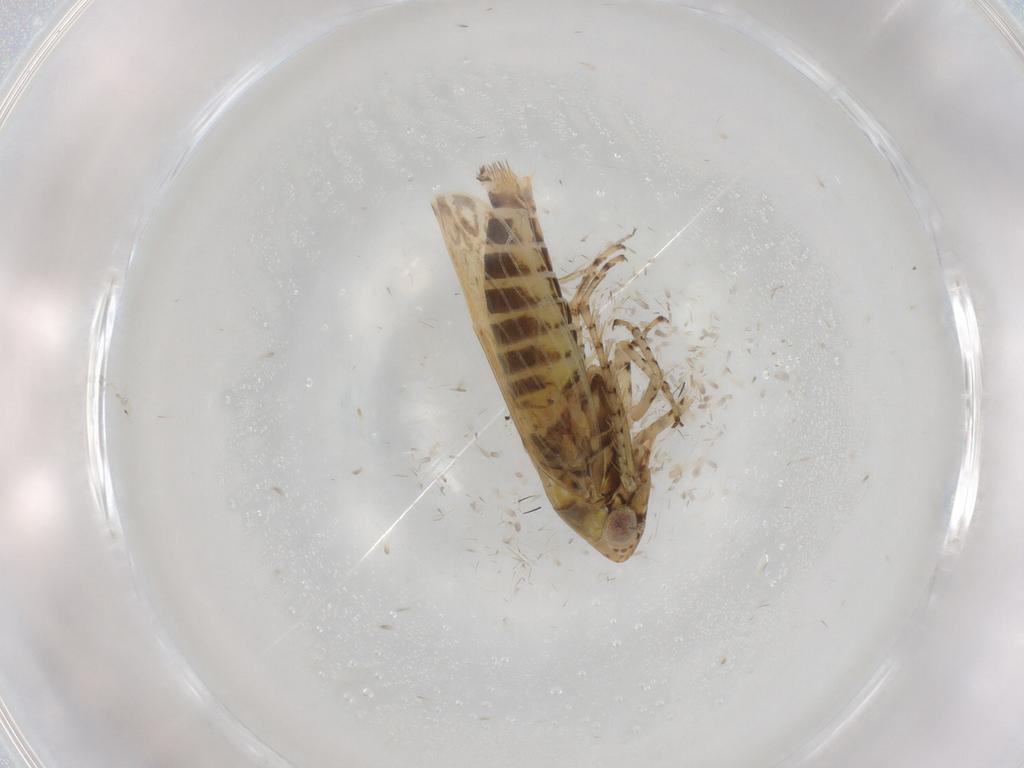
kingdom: Animalia
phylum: Arthropoda
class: Insecta
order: Hemiptera
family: Cicadellidae
